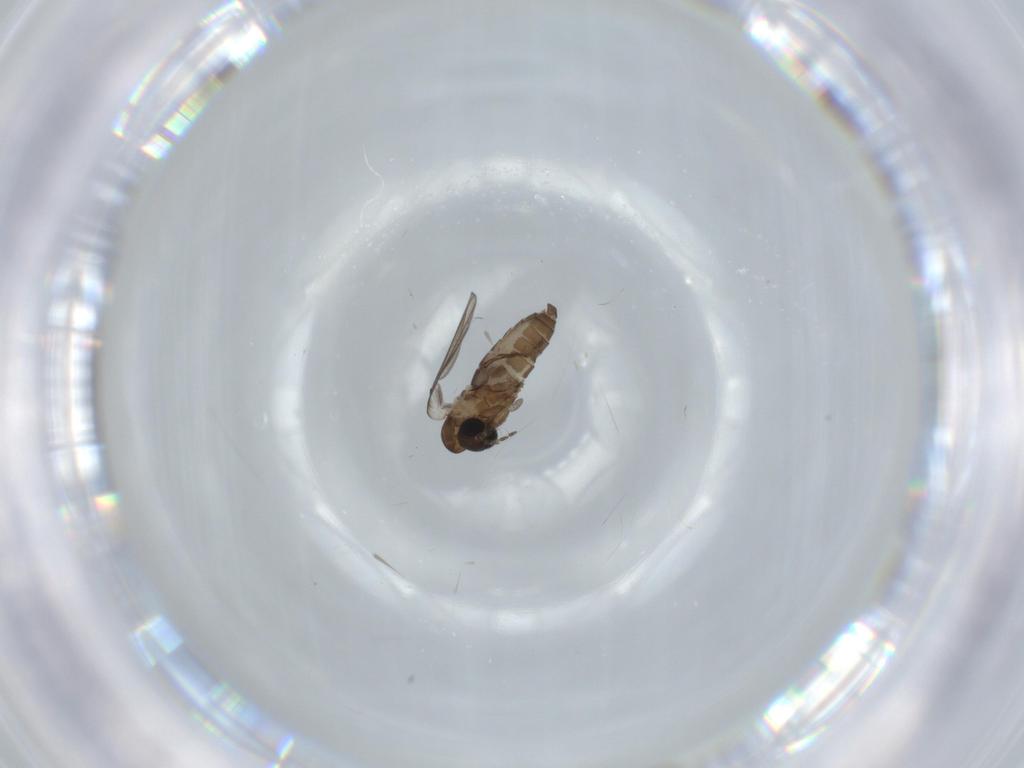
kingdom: Animalia
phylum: Arthropoda
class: Insecta
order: Diptera
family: Psychodidae
